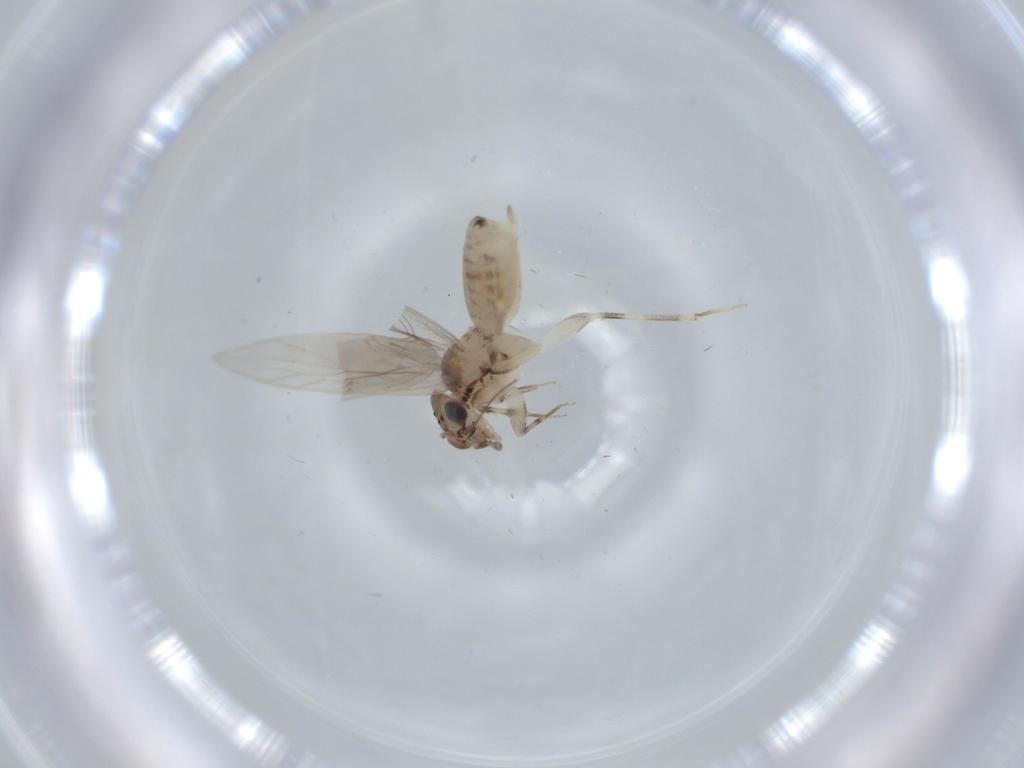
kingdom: Animalia
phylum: Arthropoda
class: Insecta
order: Psocodea
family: Lepidopsocidae
